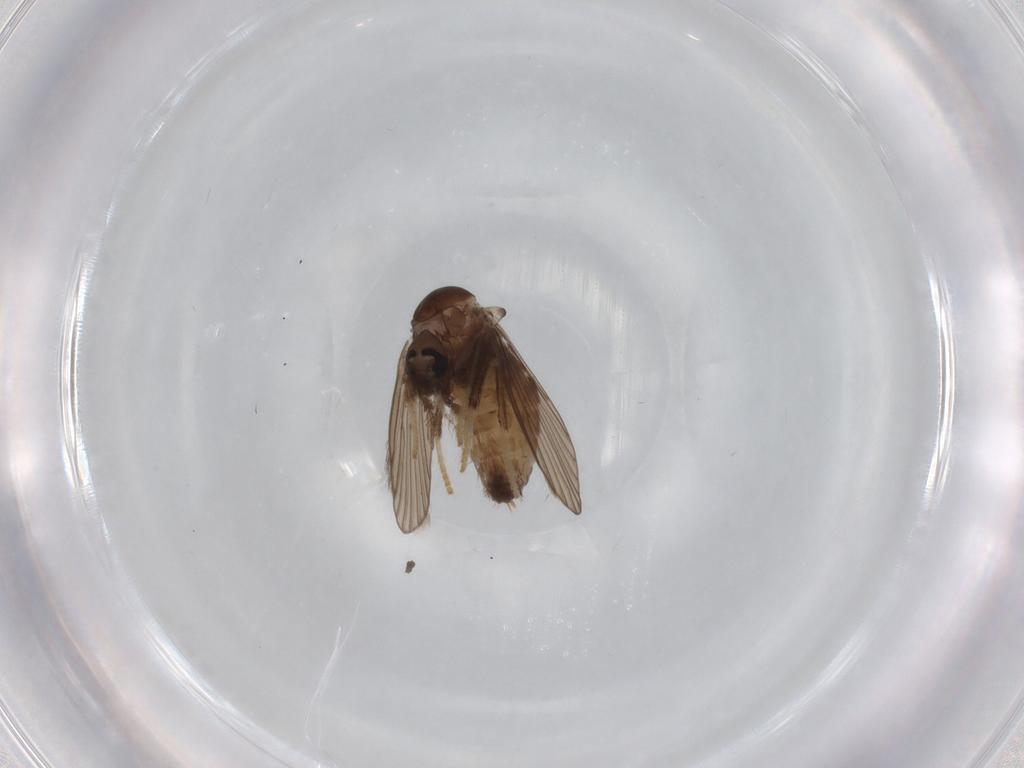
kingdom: Animalia
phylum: Arthropoda
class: Insecta
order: Diptera
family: Psychodidae
